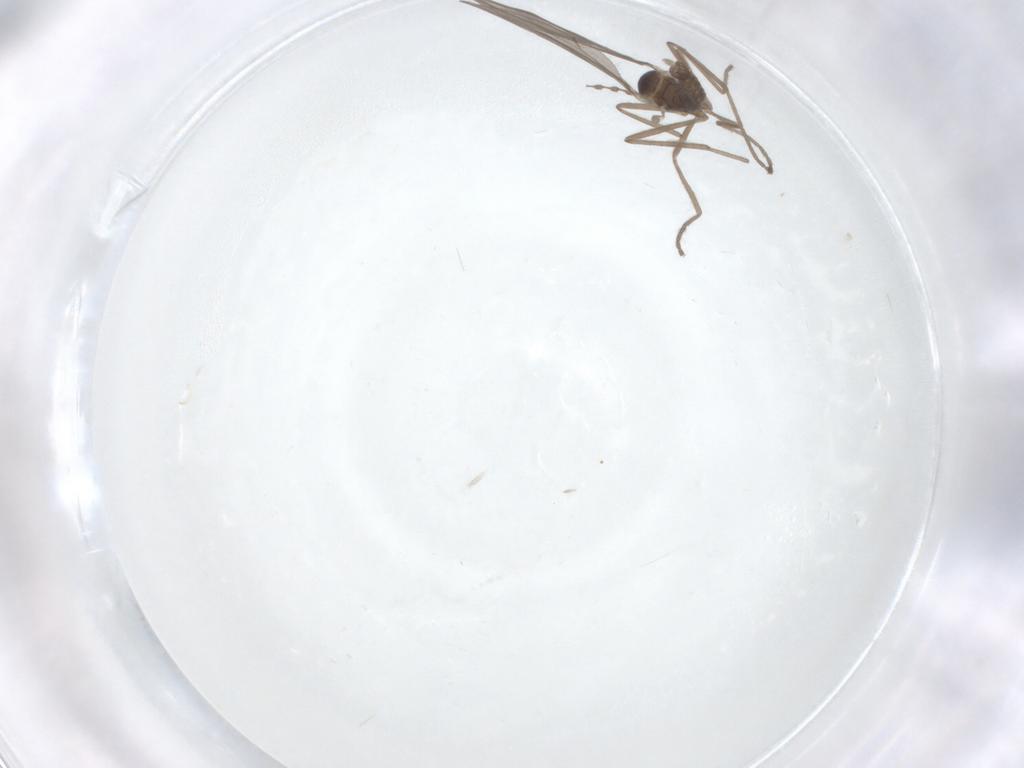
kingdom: Animalia
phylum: Arthropoda
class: Insecta
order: Diptera
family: Cecidomyiidae
